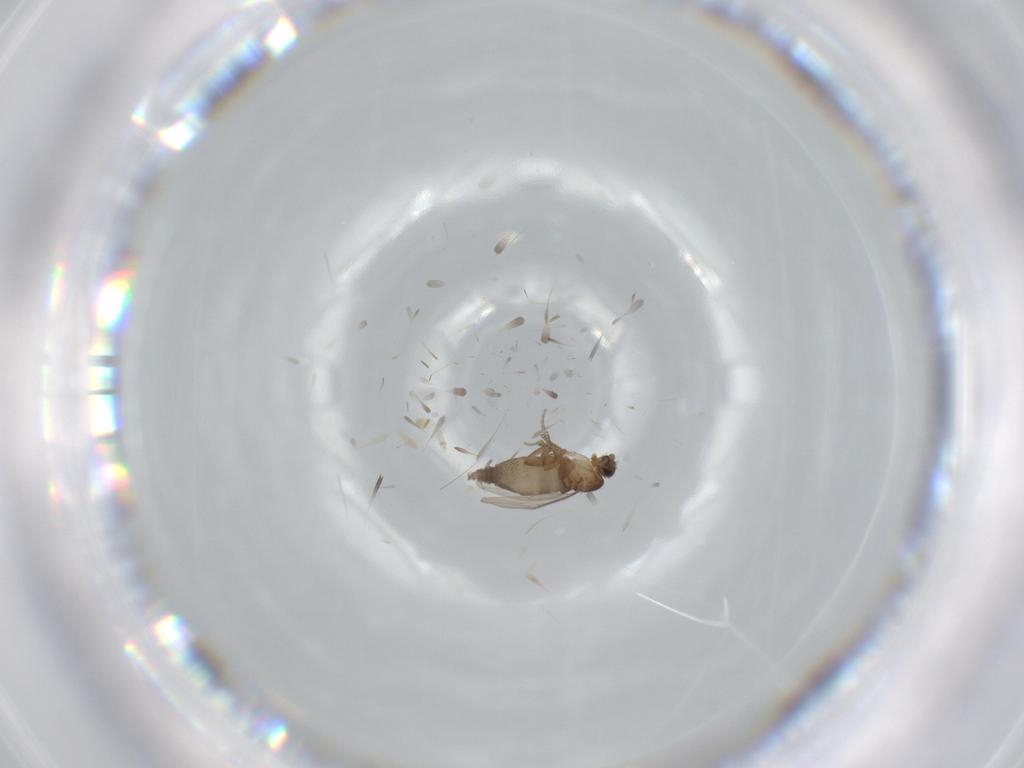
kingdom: Animalia
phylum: Arthropoda
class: Insecta
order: Diptera
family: Phoridae
